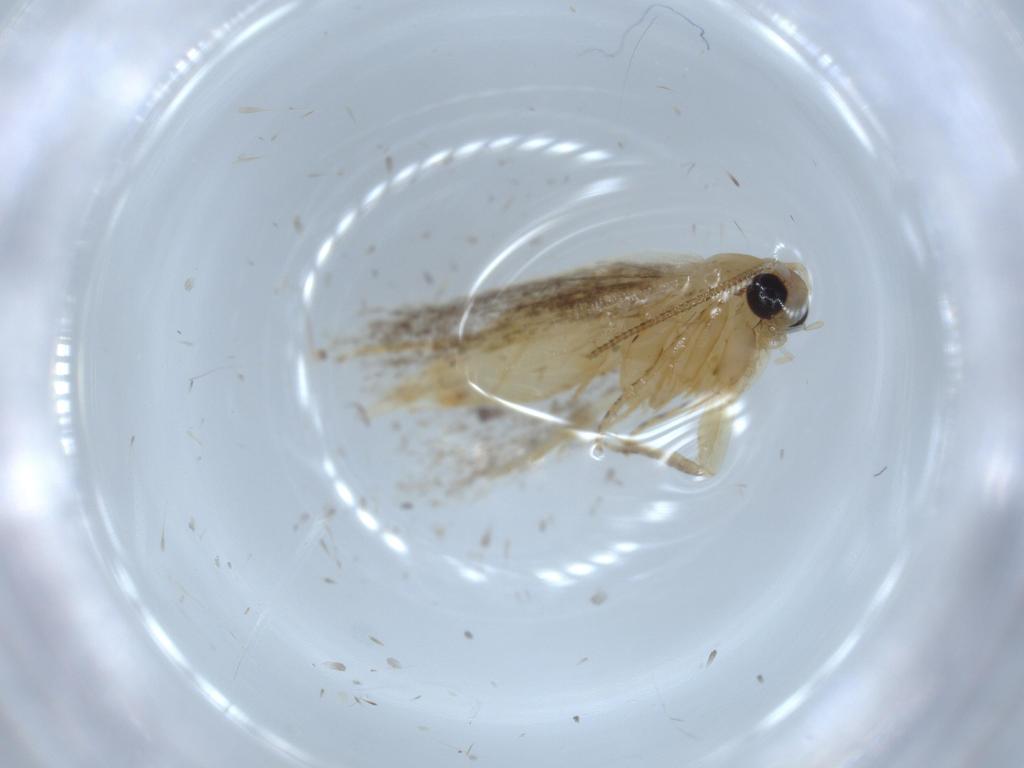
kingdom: Animalia
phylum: Arthropoda
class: Insecta
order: Lepidoptera
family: Tineidae
